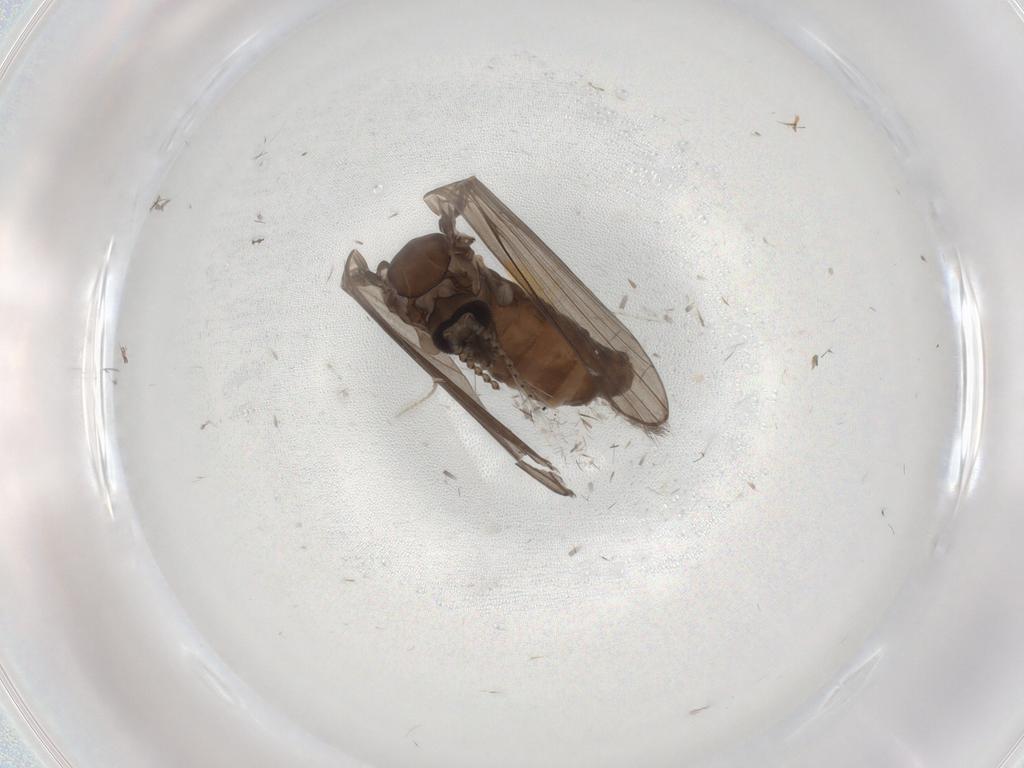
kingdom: Animalia
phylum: Arthropoda
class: Insecta
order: Diptera
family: Psychodidae
